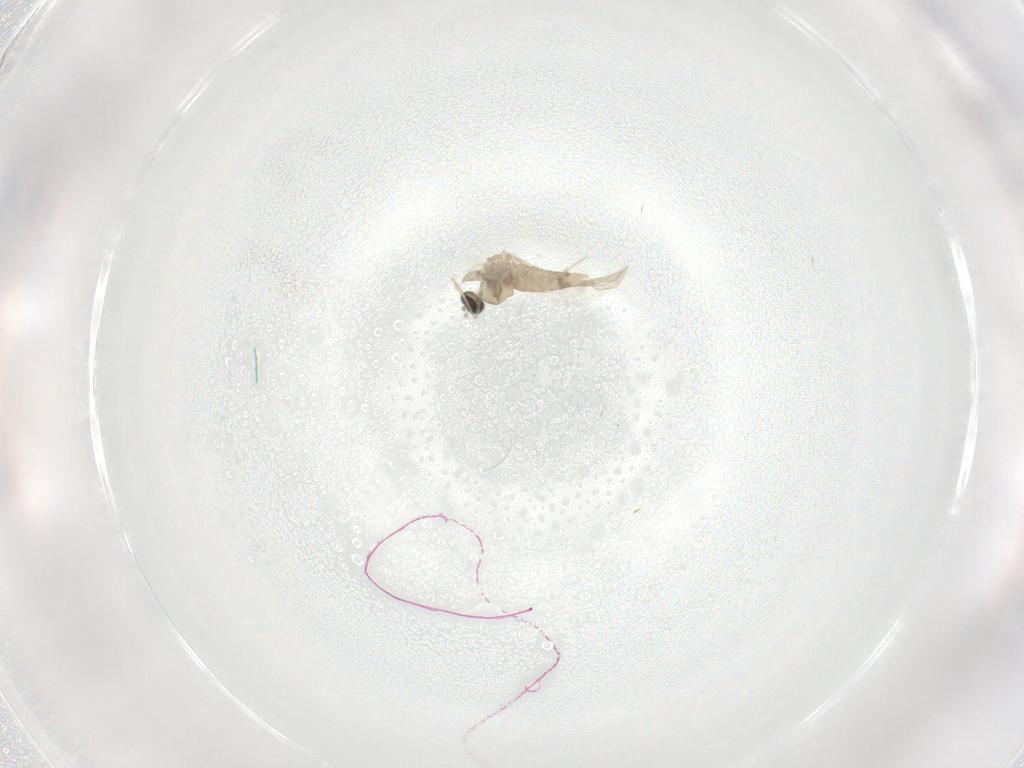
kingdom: Animalia
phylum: Arthropoda
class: Insecta
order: Diptera
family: Cecidomyiidae
